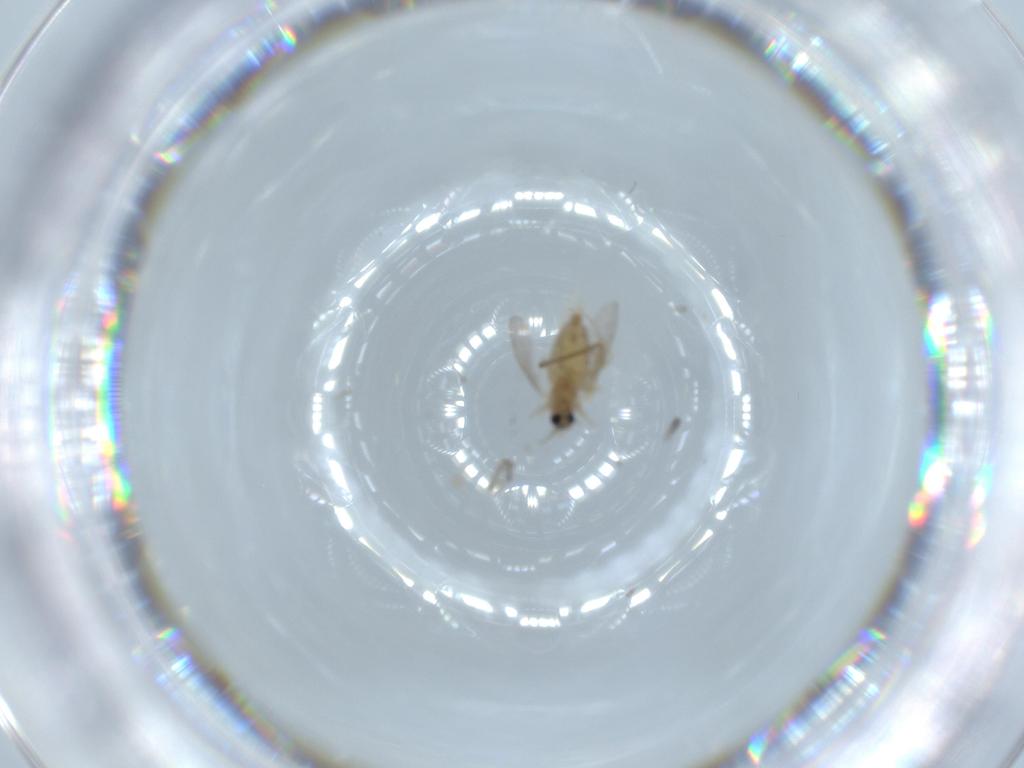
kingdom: Animalia
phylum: Arthropoda
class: Insecta
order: Diptera
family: Chironomidae
